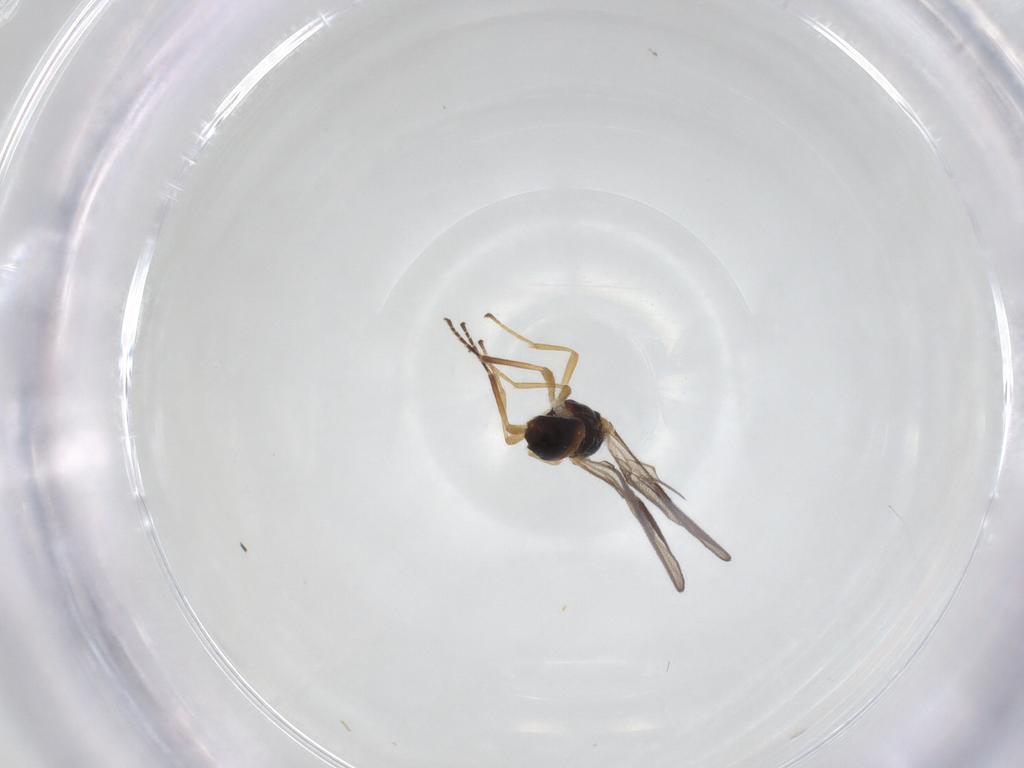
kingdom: Animalia
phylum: Arthropoda
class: Insecta
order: Hymenoptera
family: Braconidae
